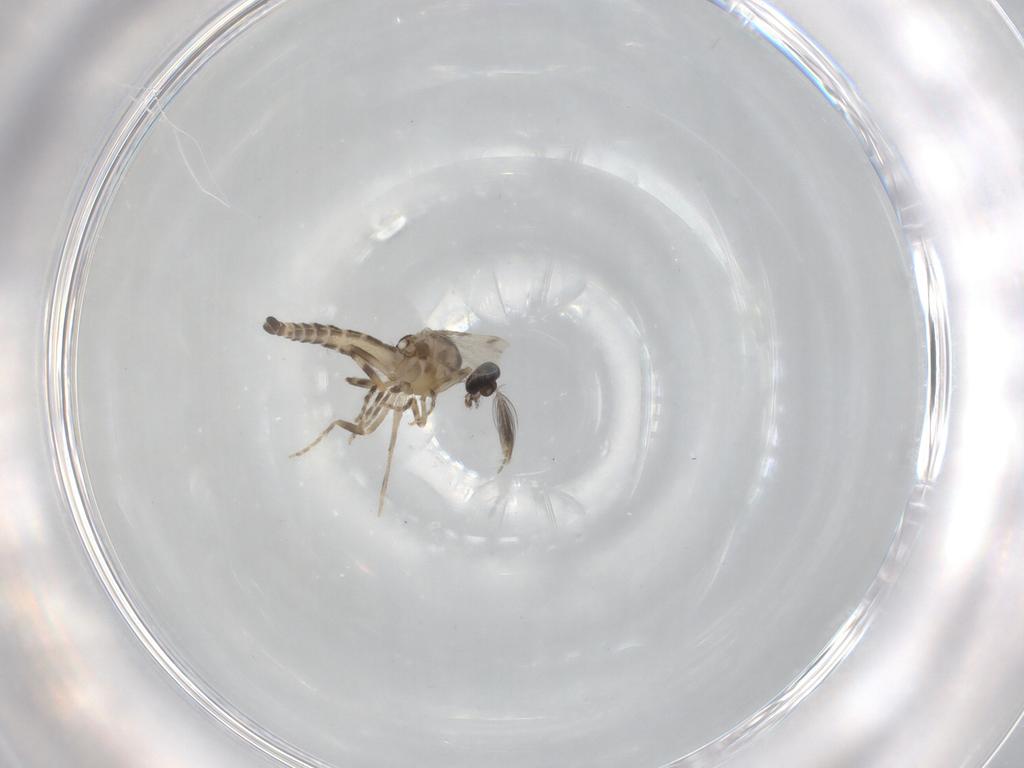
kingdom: Animalia
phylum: Arthropoda
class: Insecta
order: Diptera
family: Ceratopogonidae
